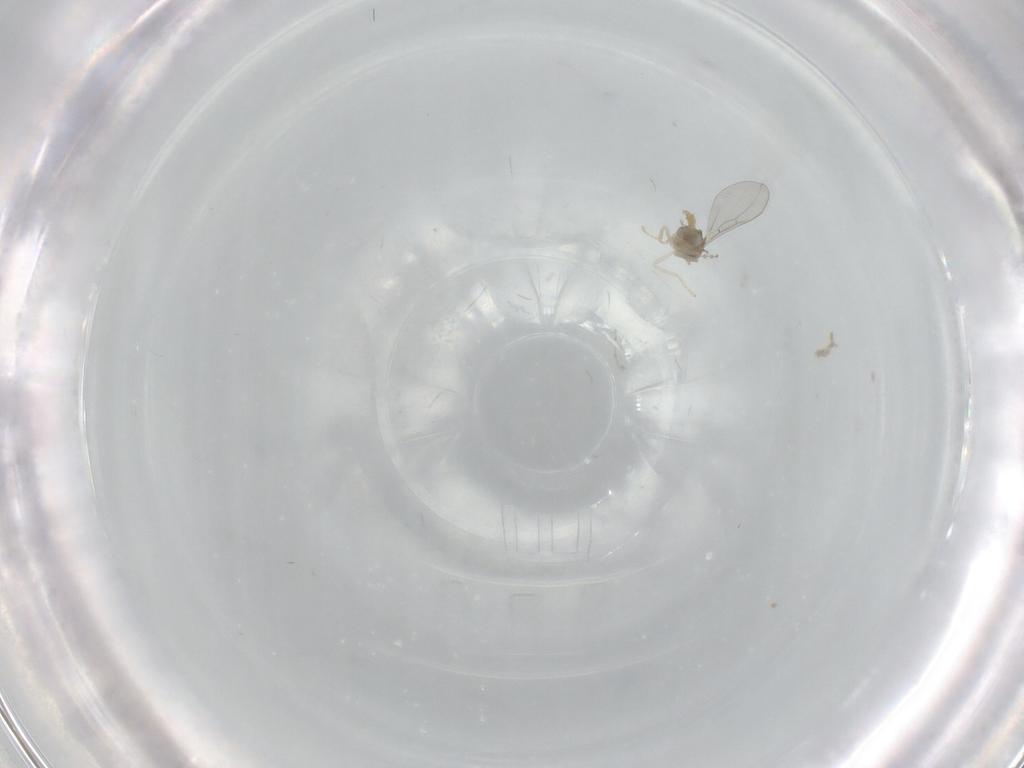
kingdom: Animalia
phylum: Arthropoda
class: Insecta
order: Diptera
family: Cecidomyiidae
